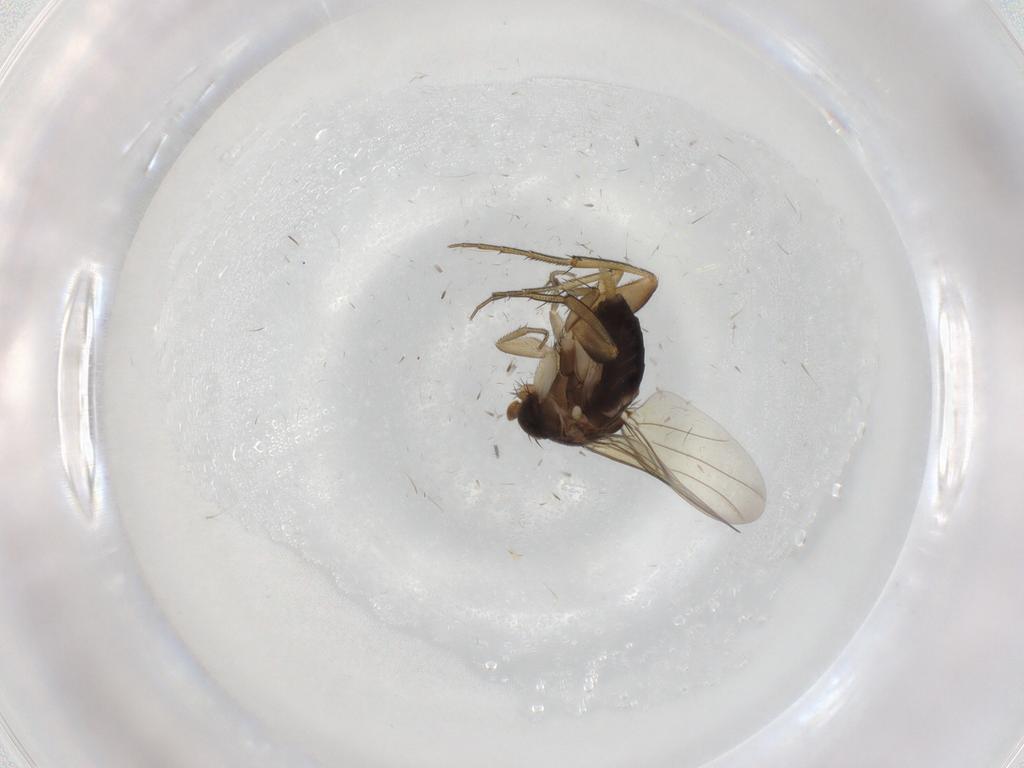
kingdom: Animalia
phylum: Arthropoda
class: Insecta
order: Diptera
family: Phoridae
